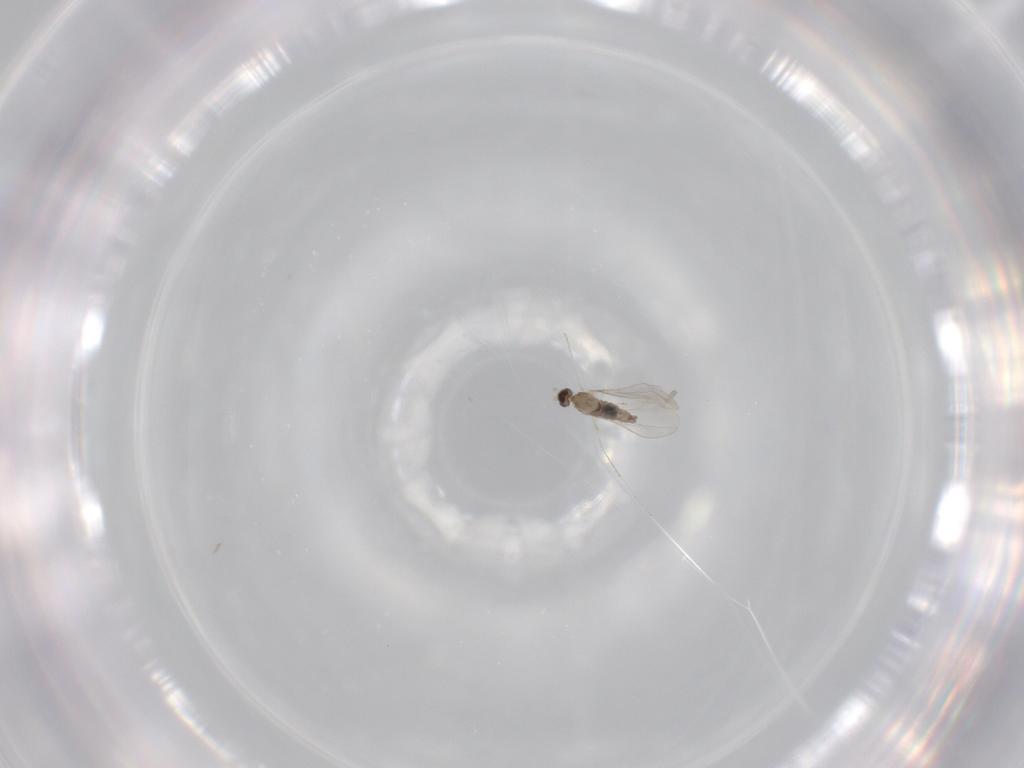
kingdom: Animalia
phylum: Arthropoda
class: Insecta
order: Diptera
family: Cecidomyiidae
